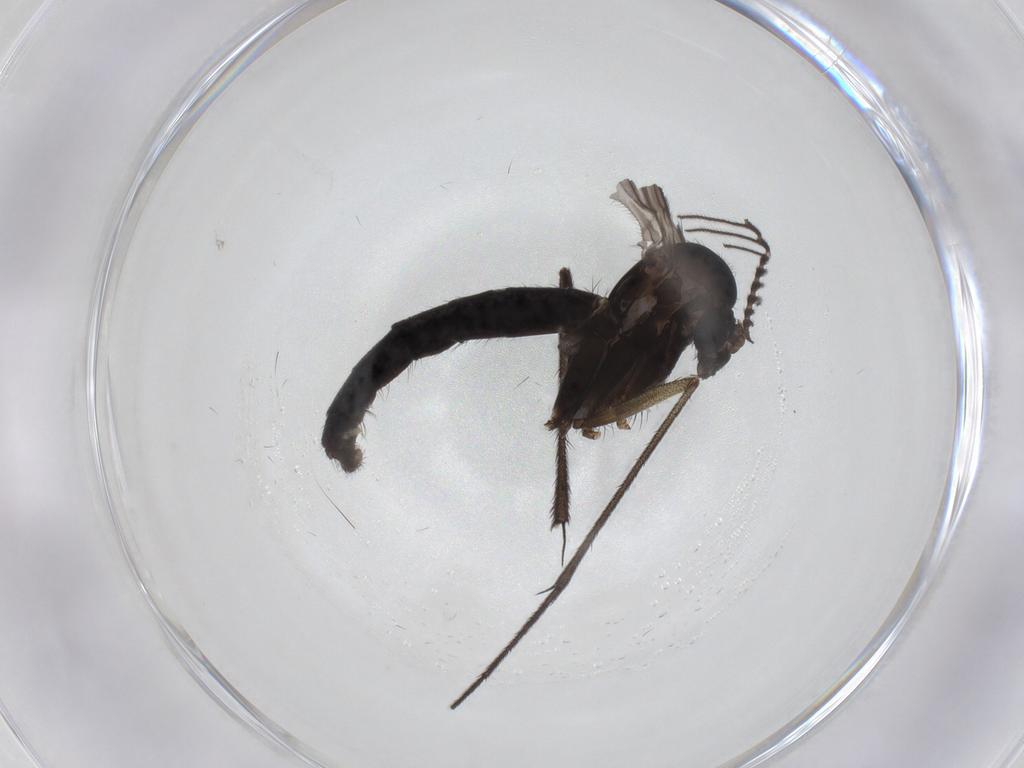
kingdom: Animalia
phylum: Arthropoda
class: Insecta
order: Diptera
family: Ditomyiidae
